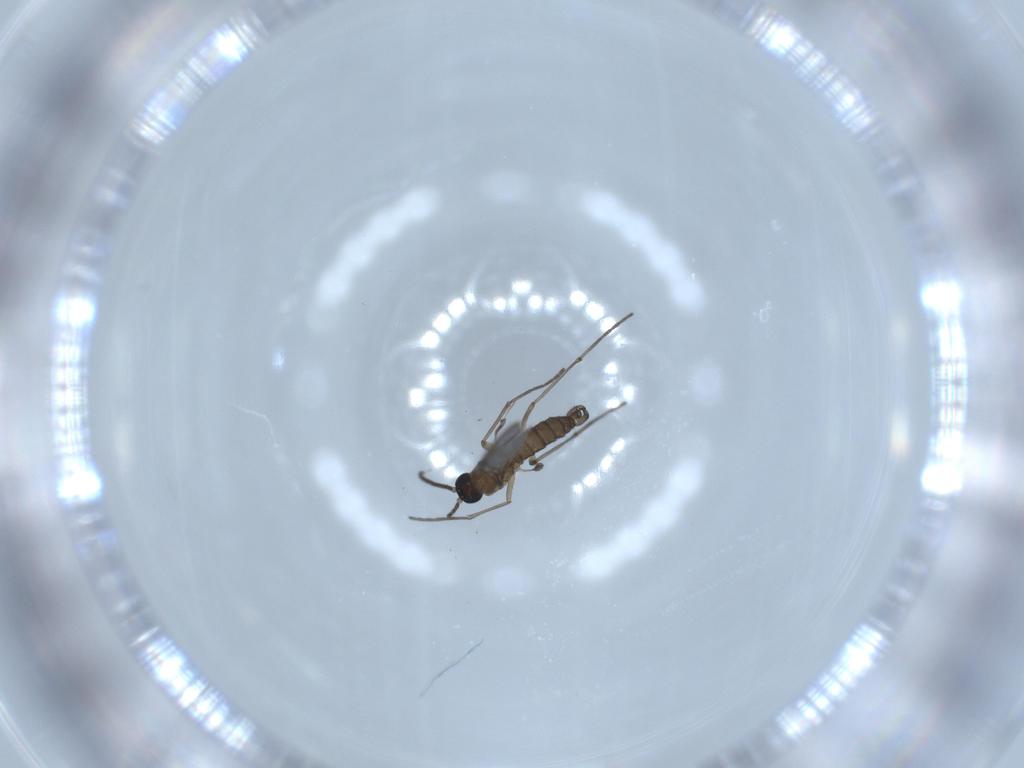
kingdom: Animalia
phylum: Arthropoda
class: Insecta
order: Diptera
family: Sciaridae
